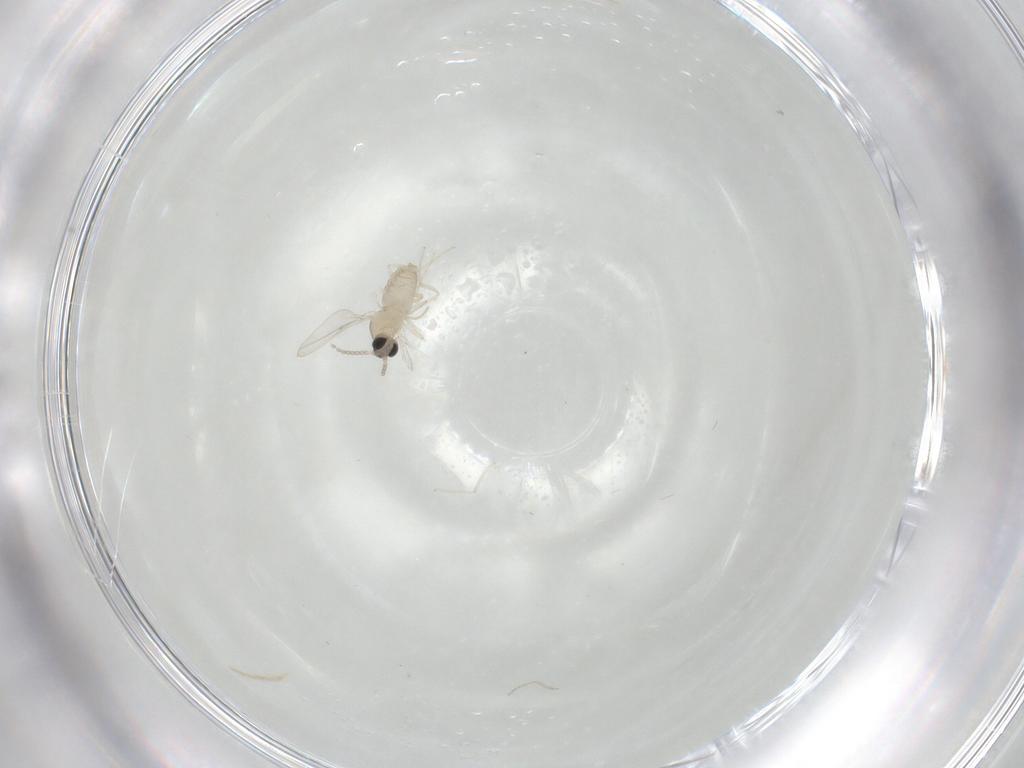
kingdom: Animalia
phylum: Arthropoda
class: Insecta
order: Diptera
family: Cecidomyiidae
